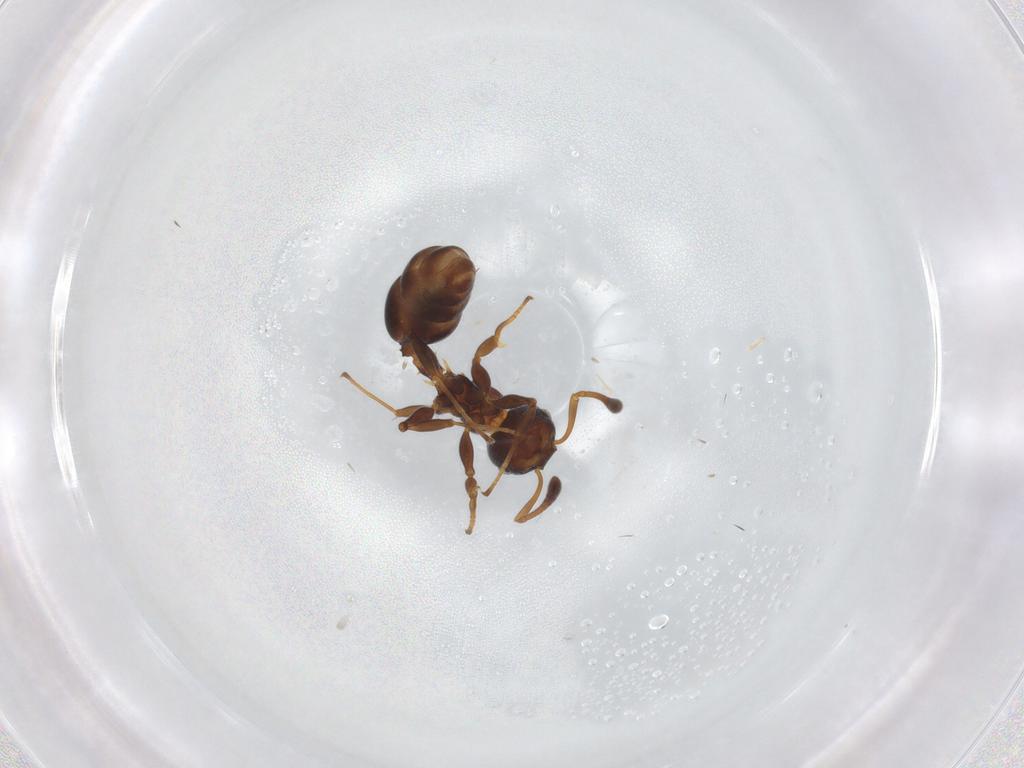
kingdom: Animalia
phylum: Arthropoda
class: Insecta
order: Hymenoptera
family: Formicidae
